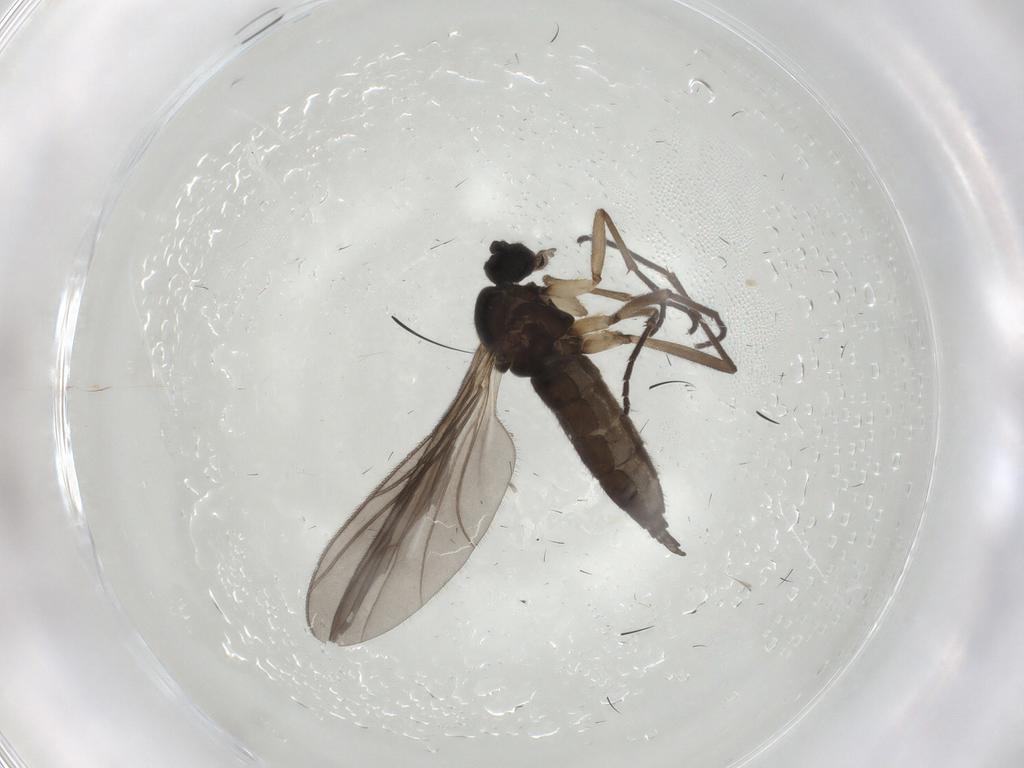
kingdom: Animalia
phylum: Arthropoda
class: Insecta
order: Diptera
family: Sciaridae
